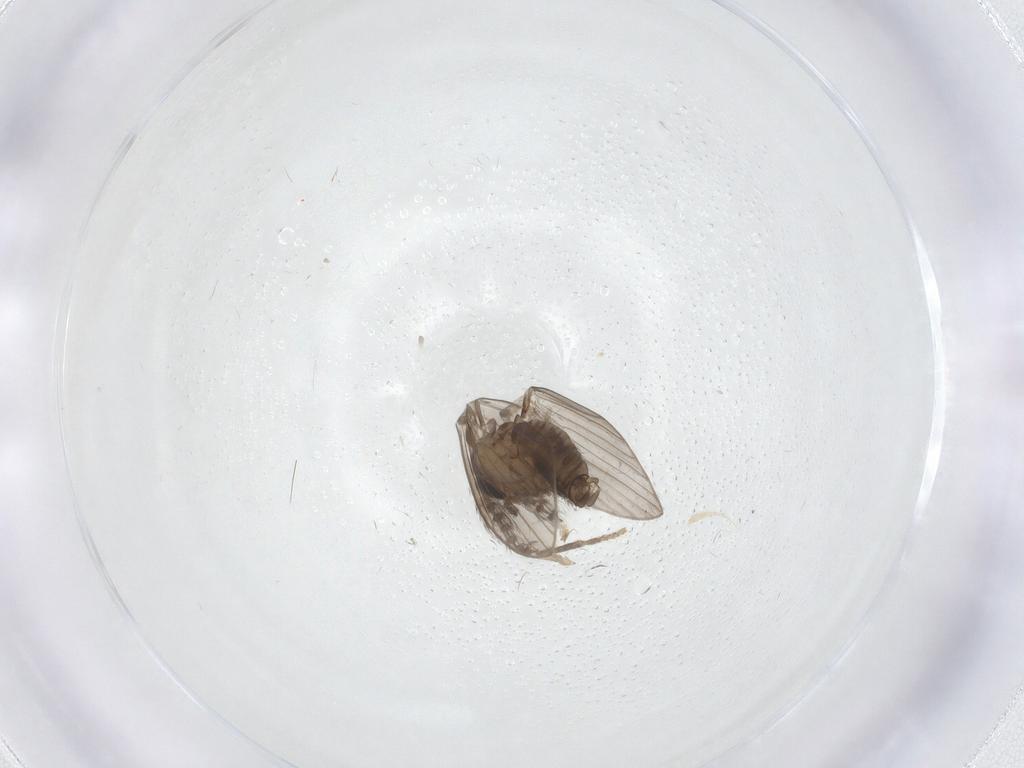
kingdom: Animalia
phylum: Arthropoda
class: Insecta
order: Diptera
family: Psychodidae
